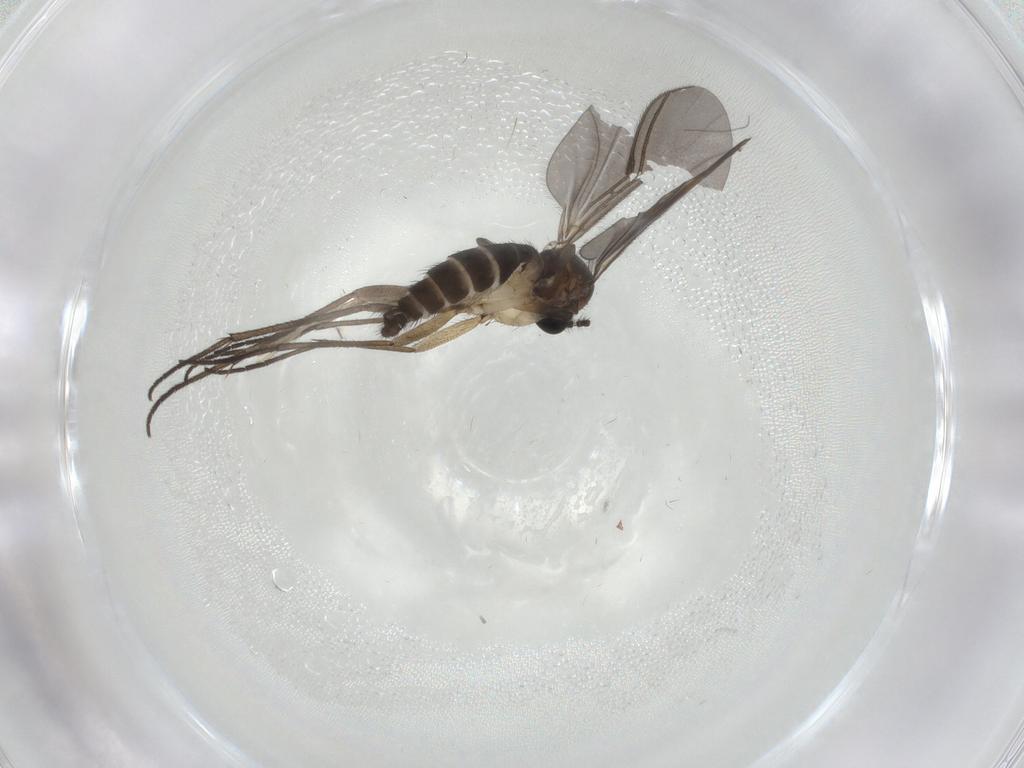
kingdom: Animalia
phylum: Arthropoda
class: Insecta
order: Diptera
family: Sciaridae
